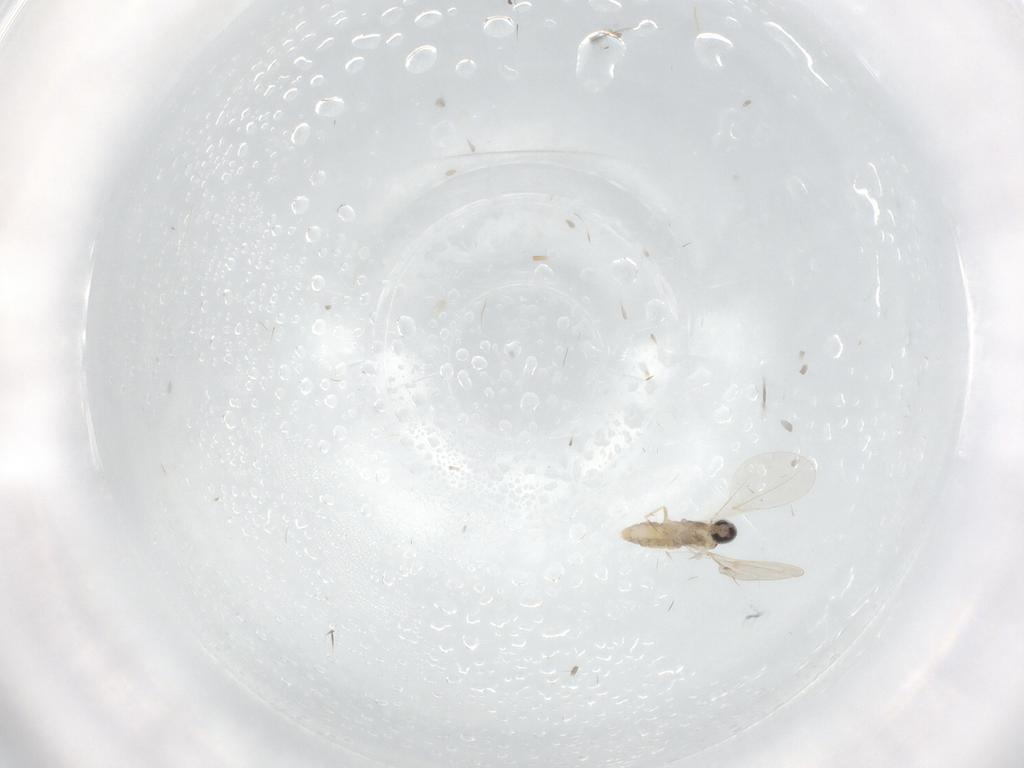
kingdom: Animalia
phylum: Arthropoda
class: Insecta
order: Diptera
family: Cecidomyiidae
